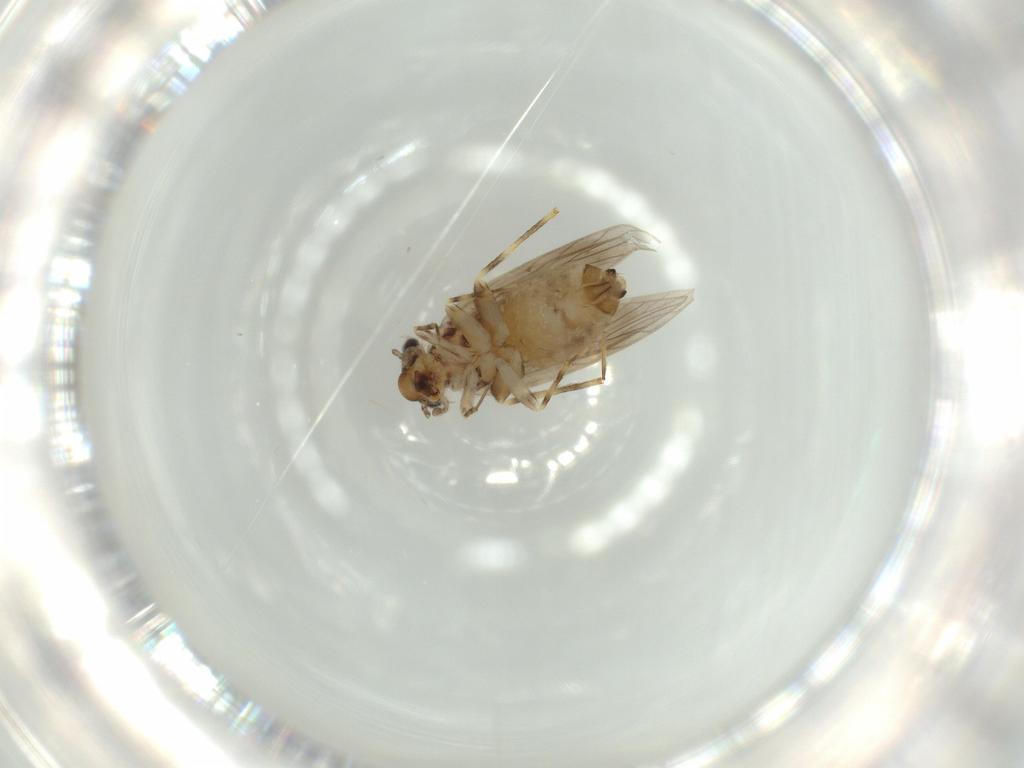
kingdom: Animalia
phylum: Arthropoda
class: Insecta
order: Psocodea
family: Lepidopsocidae
